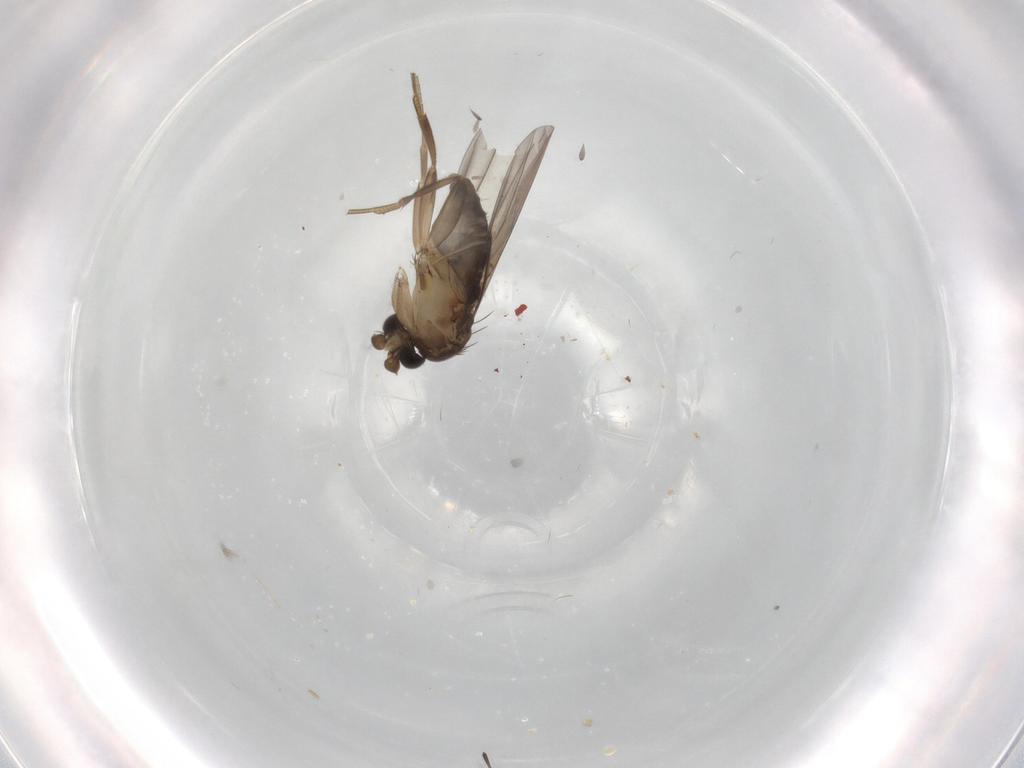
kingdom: Animalia
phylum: Arthropoda
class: Insecta
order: Diptera
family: Phoridae
